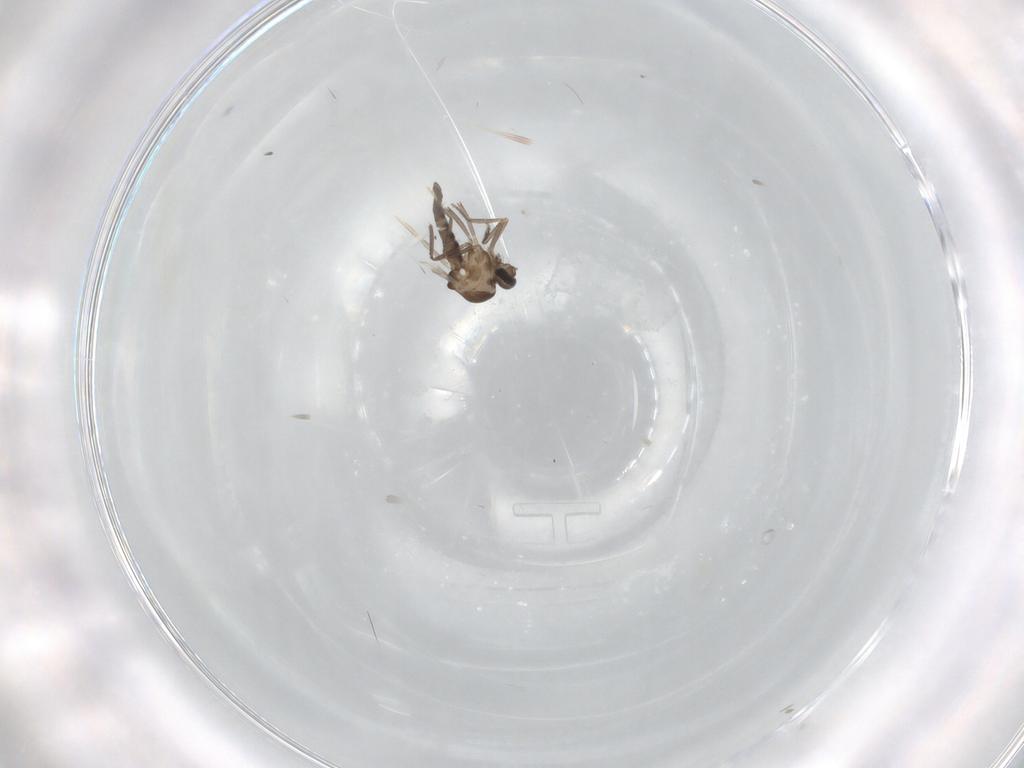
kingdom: Animalia
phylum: Arthropoda
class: Insecta
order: Diptera
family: Ceratopogonidae
